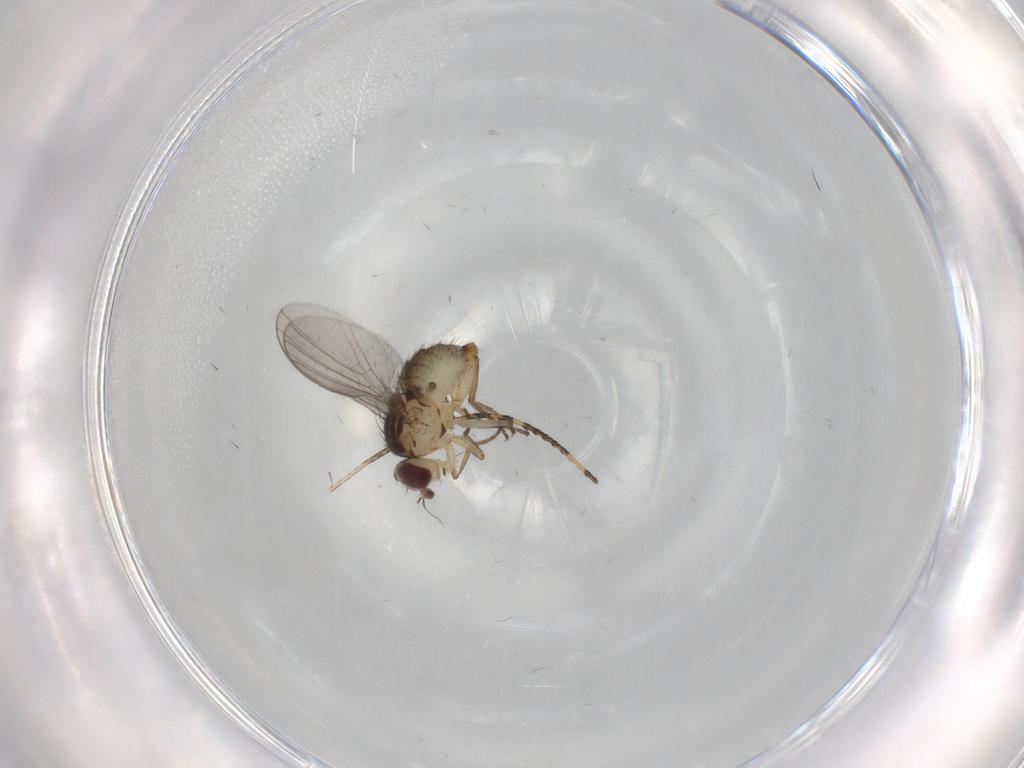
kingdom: Animalia
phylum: Arthropoda
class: Insecta
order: Diptera
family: Agromyzidae
